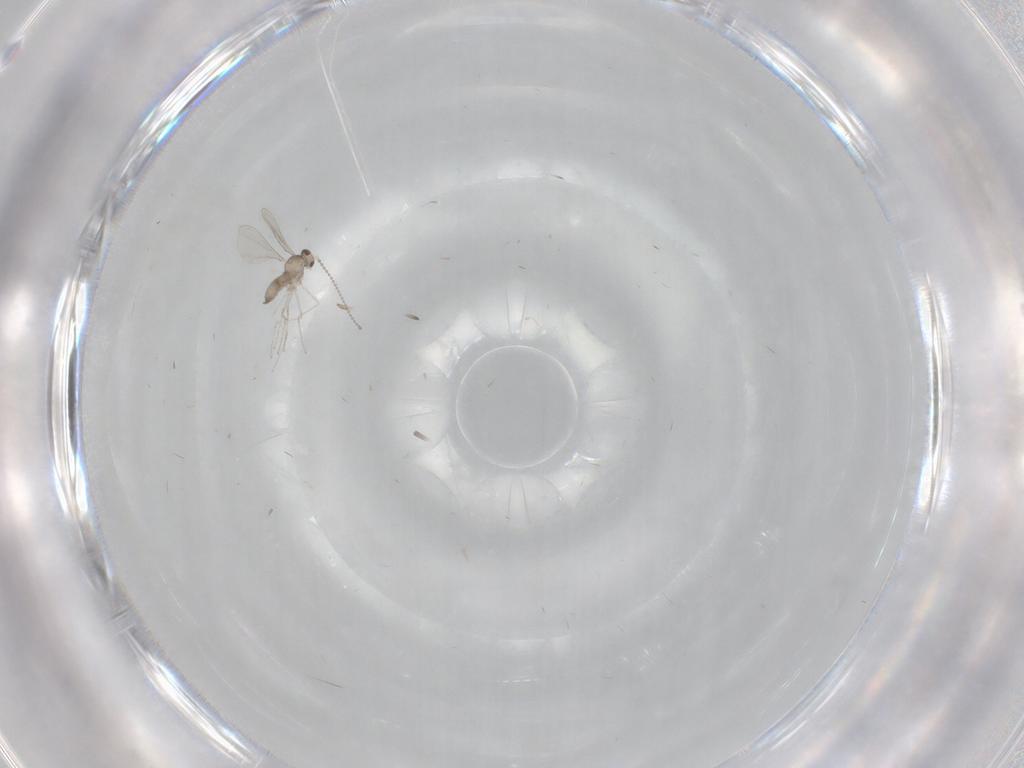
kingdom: Animalia
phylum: Arthropoda
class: Insecta
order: Diptera
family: Cecidomyiidae
